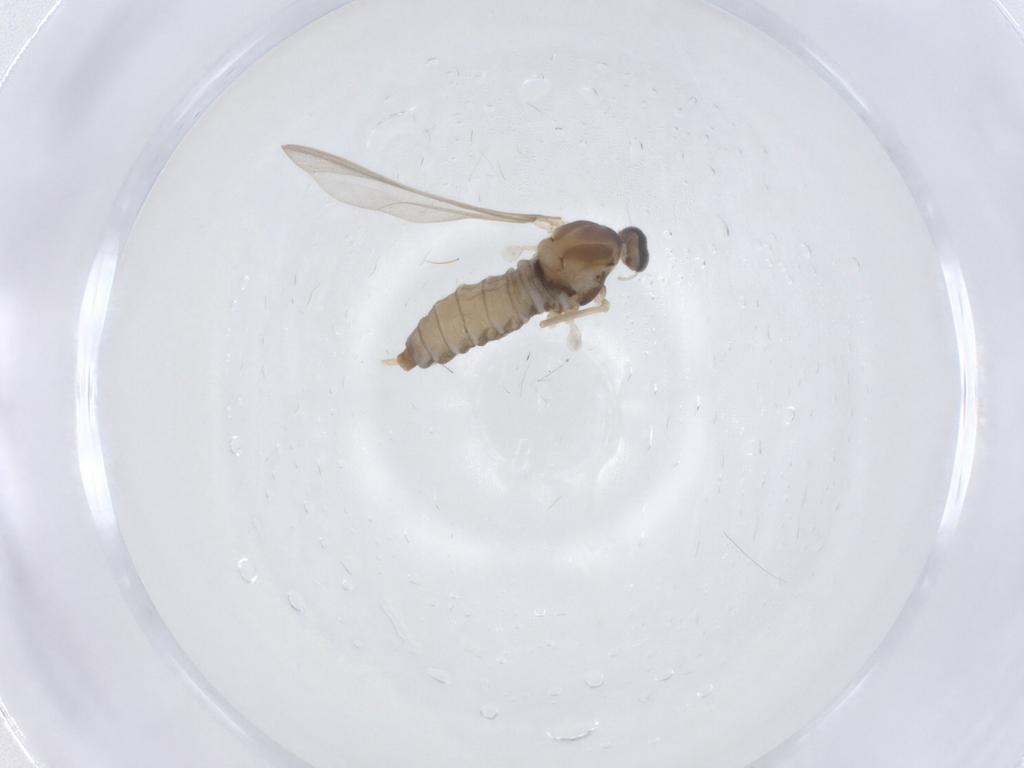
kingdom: Animalia
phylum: Arthropoda
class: Insecta
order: Diptera
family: Cecidomyiidae
